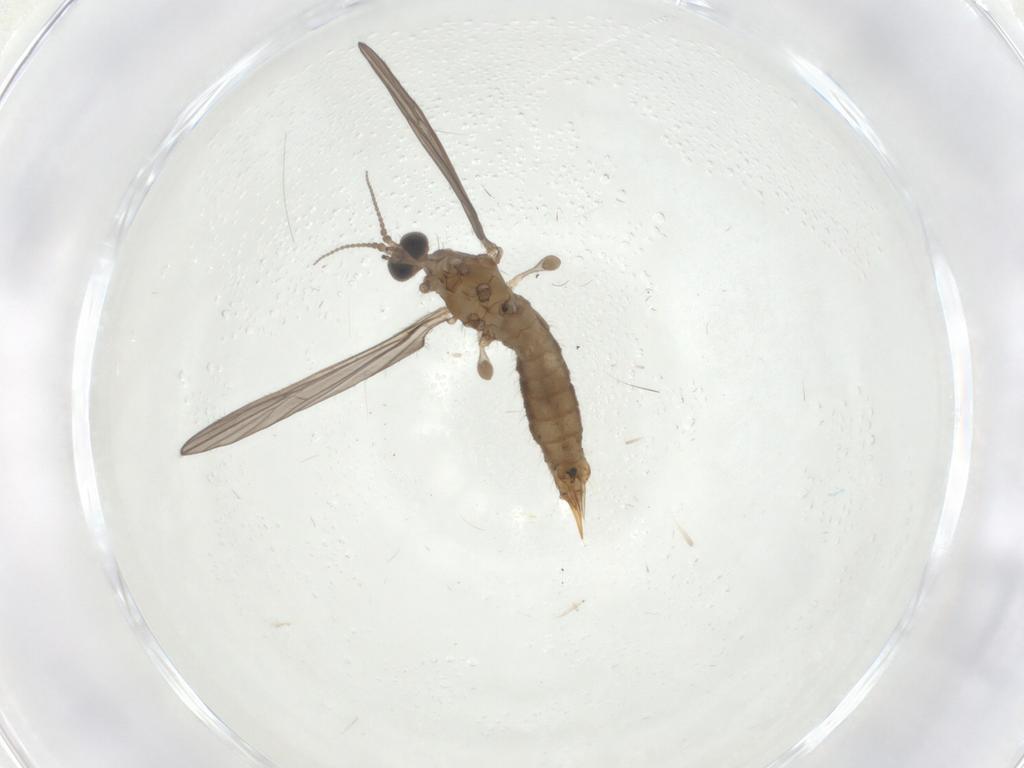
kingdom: Animalia
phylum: Arthropoda
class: Insecta
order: Diptera
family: Limoniidae
